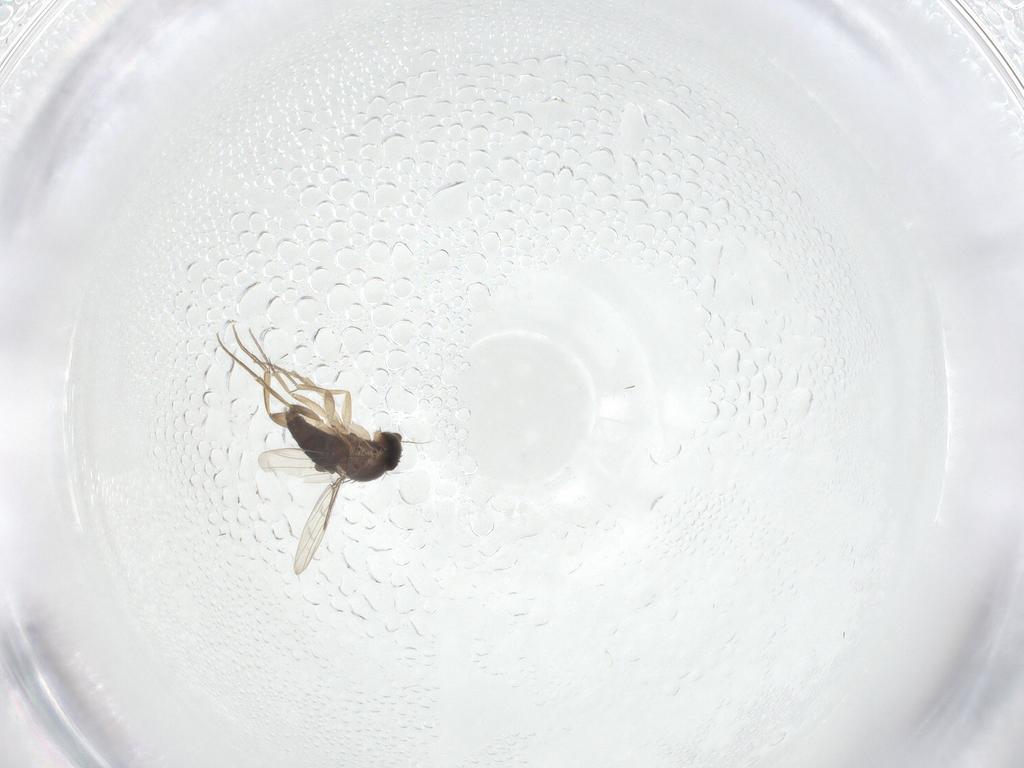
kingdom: Animalia
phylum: Arthropoda
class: Insecta
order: Diptera
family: Phoridae
